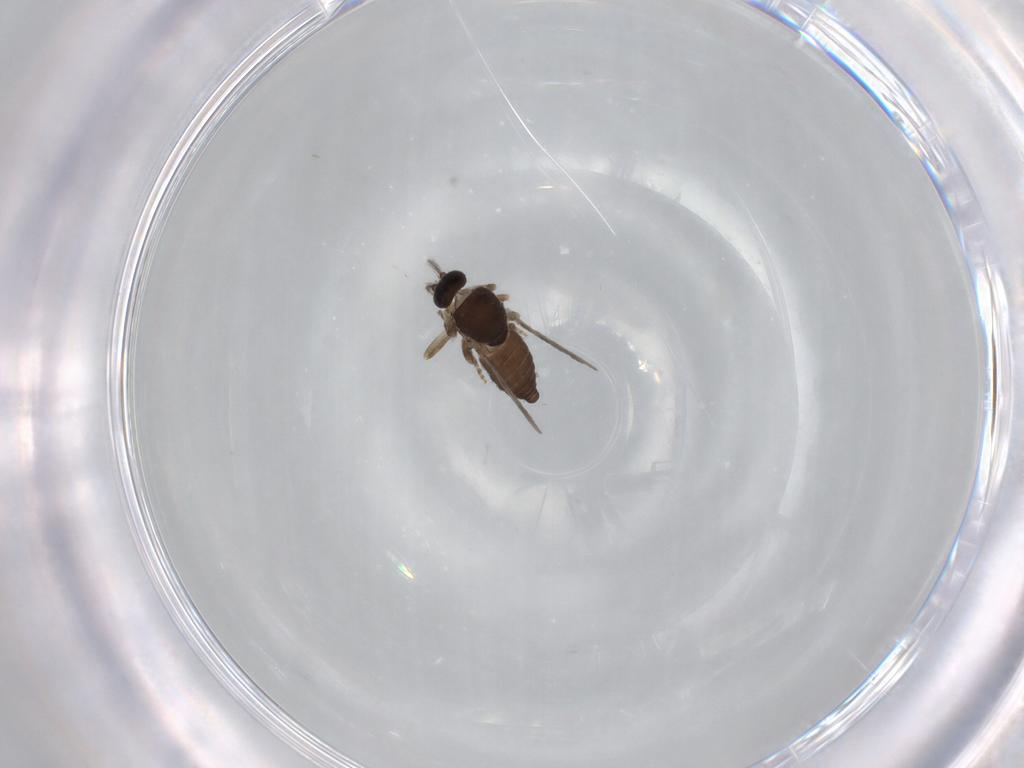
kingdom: Animalia
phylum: Arthropoda
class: Insecta
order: Diptera
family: Ceratopogonidae
